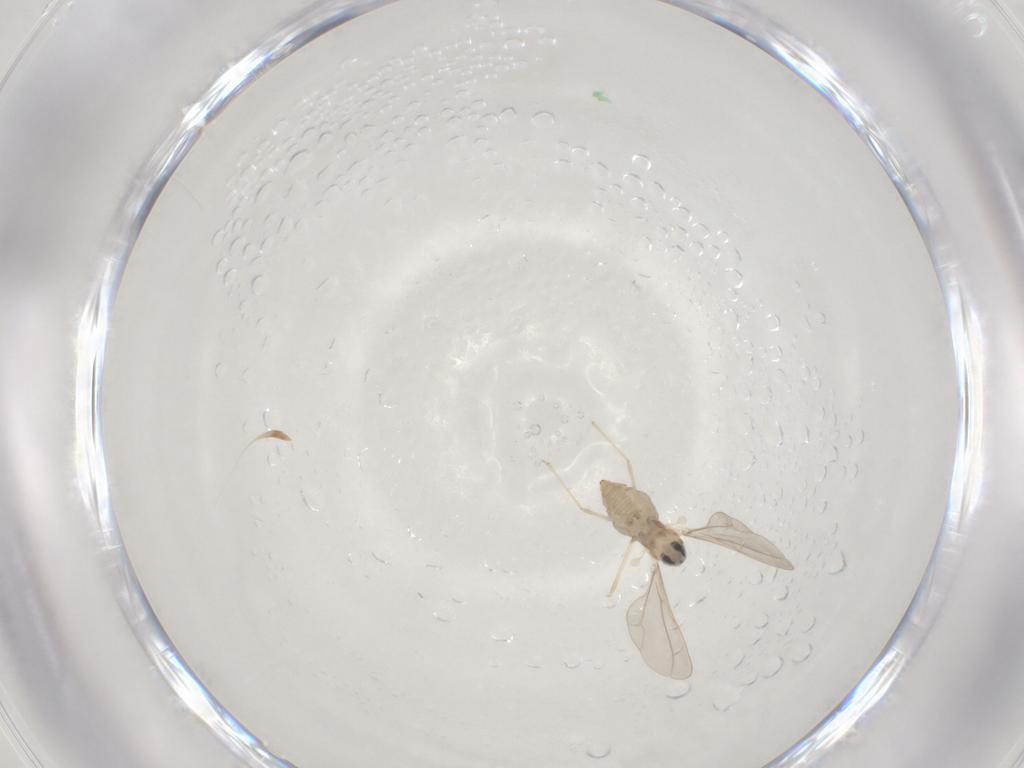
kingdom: Animalia
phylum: Arthropoda
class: Insecta
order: Diptera
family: Cecidomyiidae
